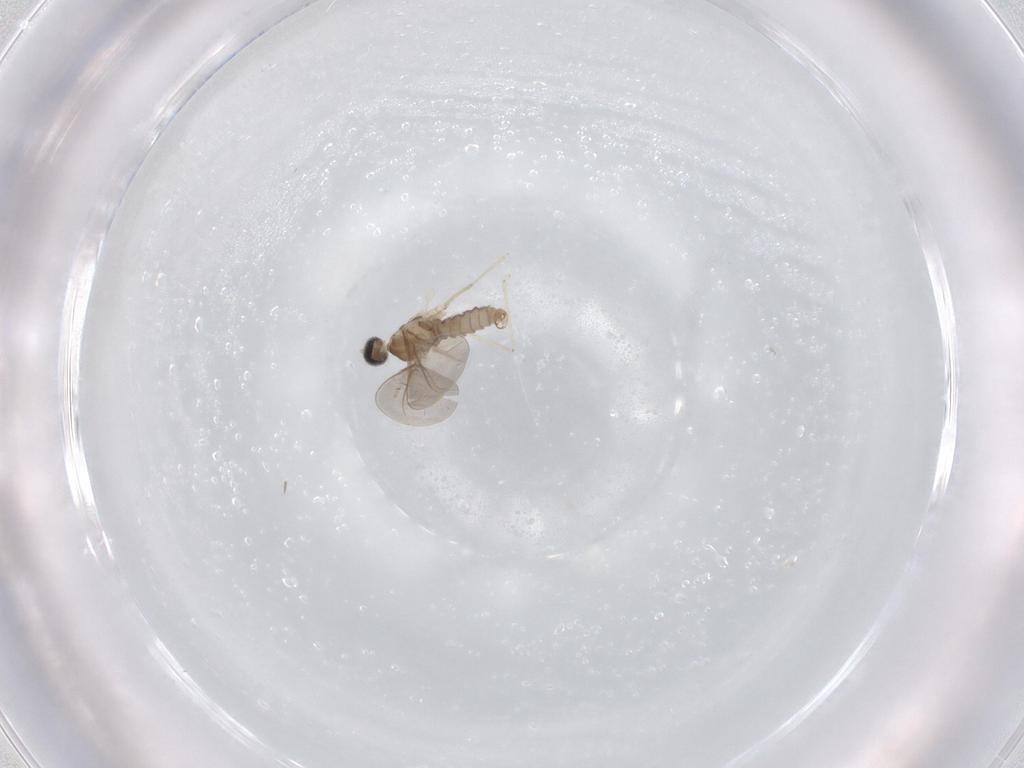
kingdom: Animalia
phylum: Arthropoda
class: Insecta
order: Diptera
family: Cecidomyiidae
